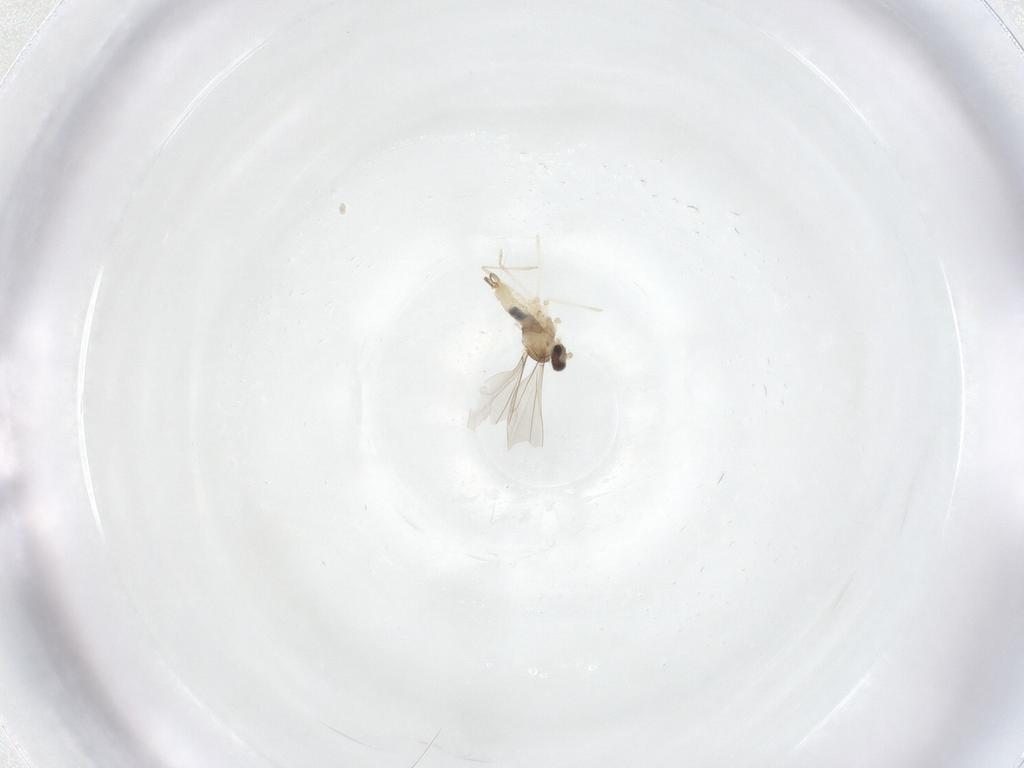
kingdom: Animalia
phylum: Arthropoda
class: Insecta
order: Diptera
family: Cecidomyiidae
